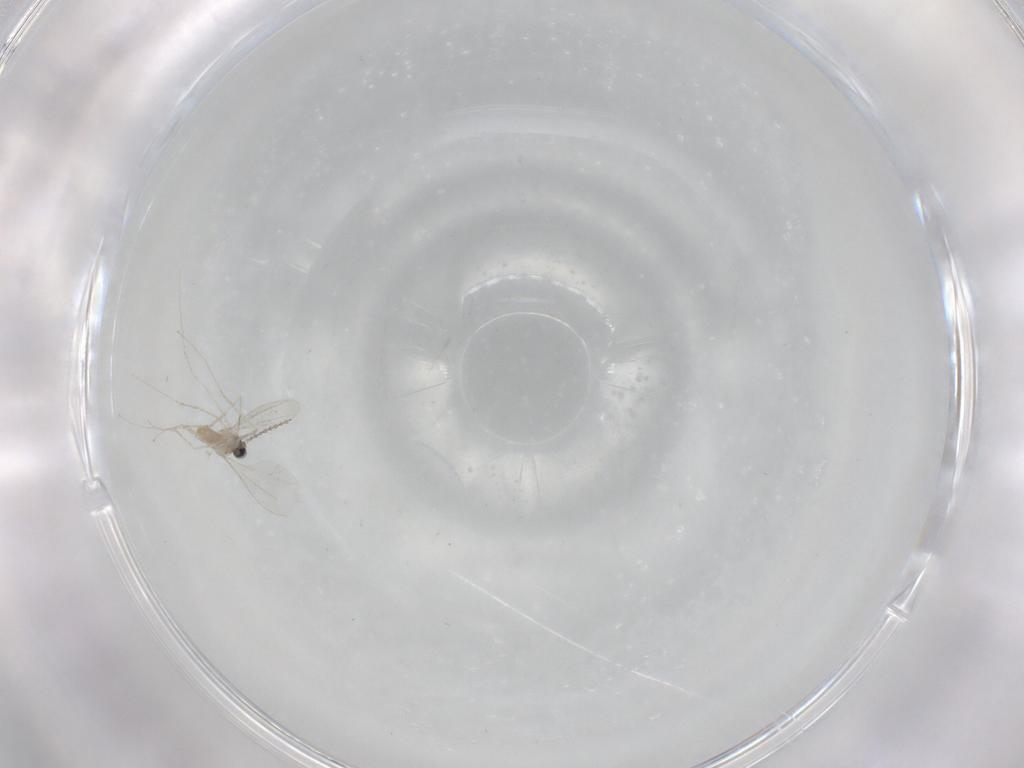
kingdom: Animalia
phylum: Arthropoda
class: Insecta
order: Diptera
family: Cecidomyiidae
